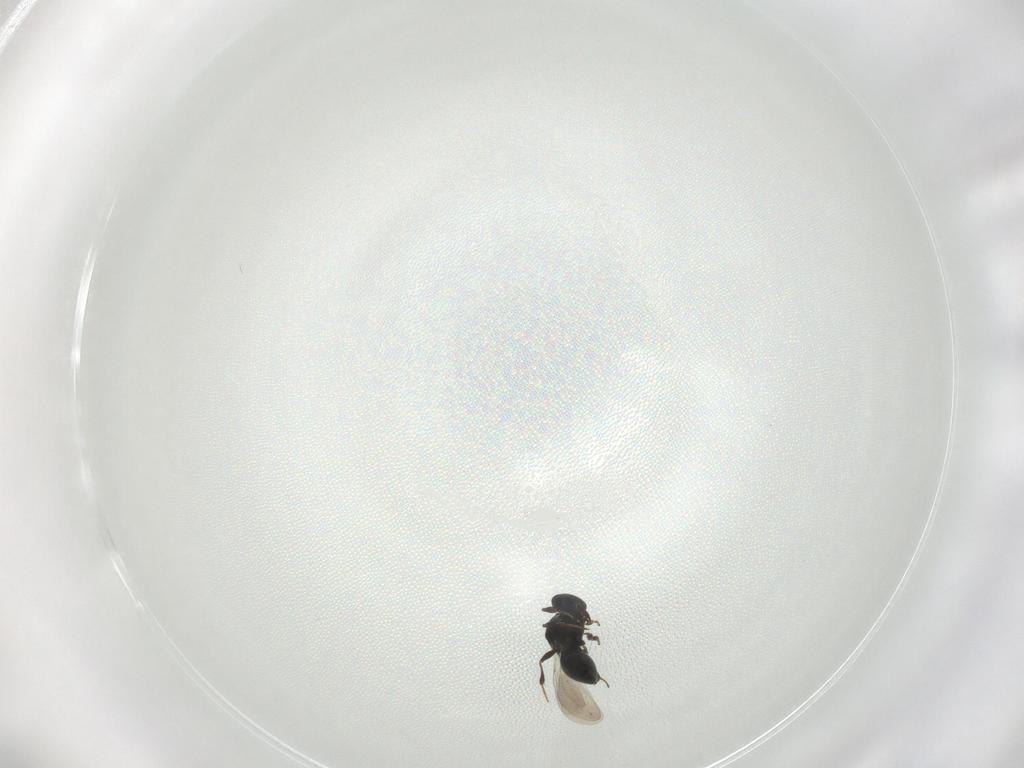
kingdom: Animalia
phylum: Arthropoda
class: Insecta
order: Hymenoptera
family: Platygastridae
